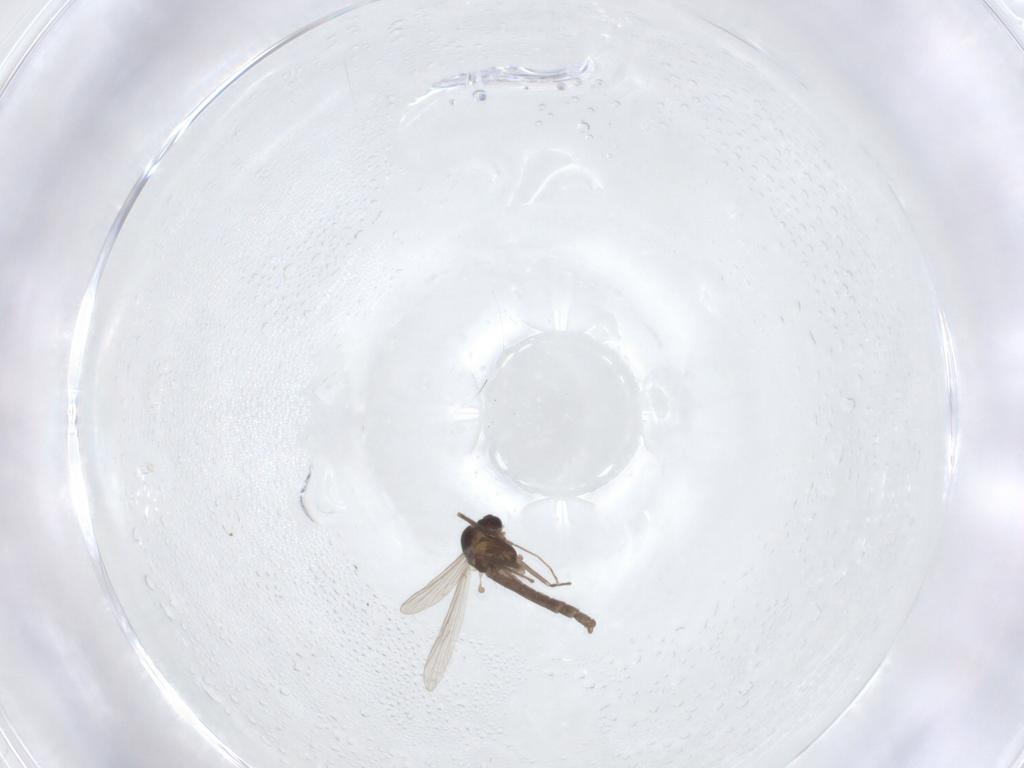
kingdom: Animalia
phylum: Arthropoda
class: Insecta
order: Diptera
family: Chironomidae
